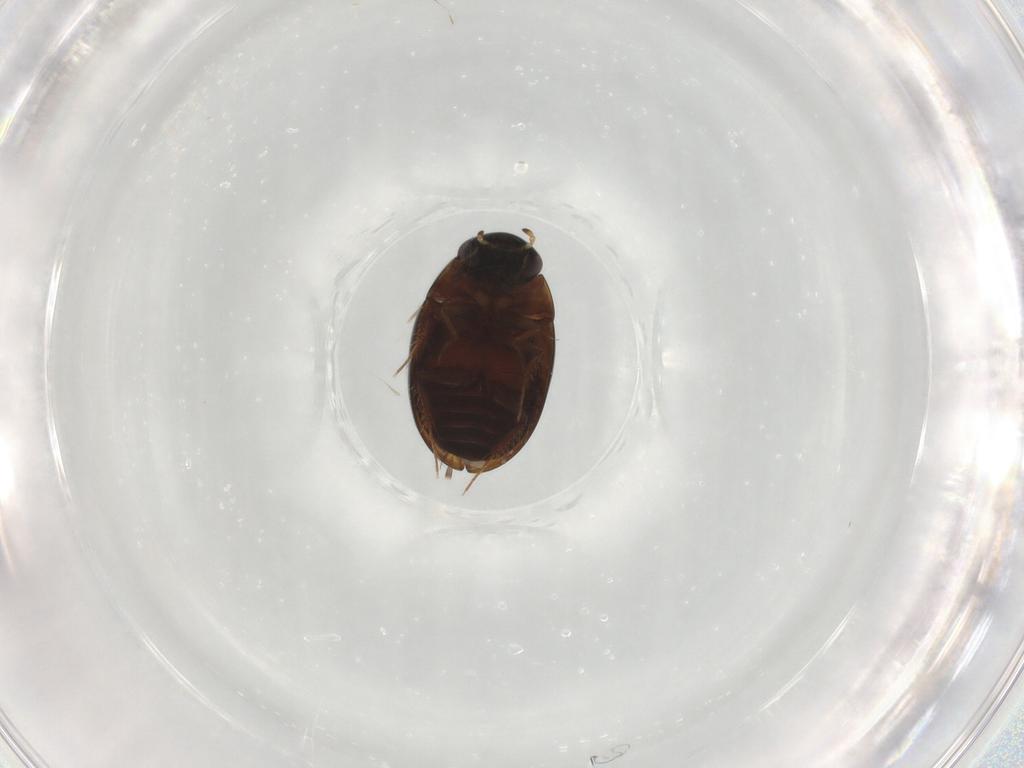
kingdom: Animalia
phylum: Arthropoda
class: Insecta
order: Coleoptera
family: Hydrophilidae
